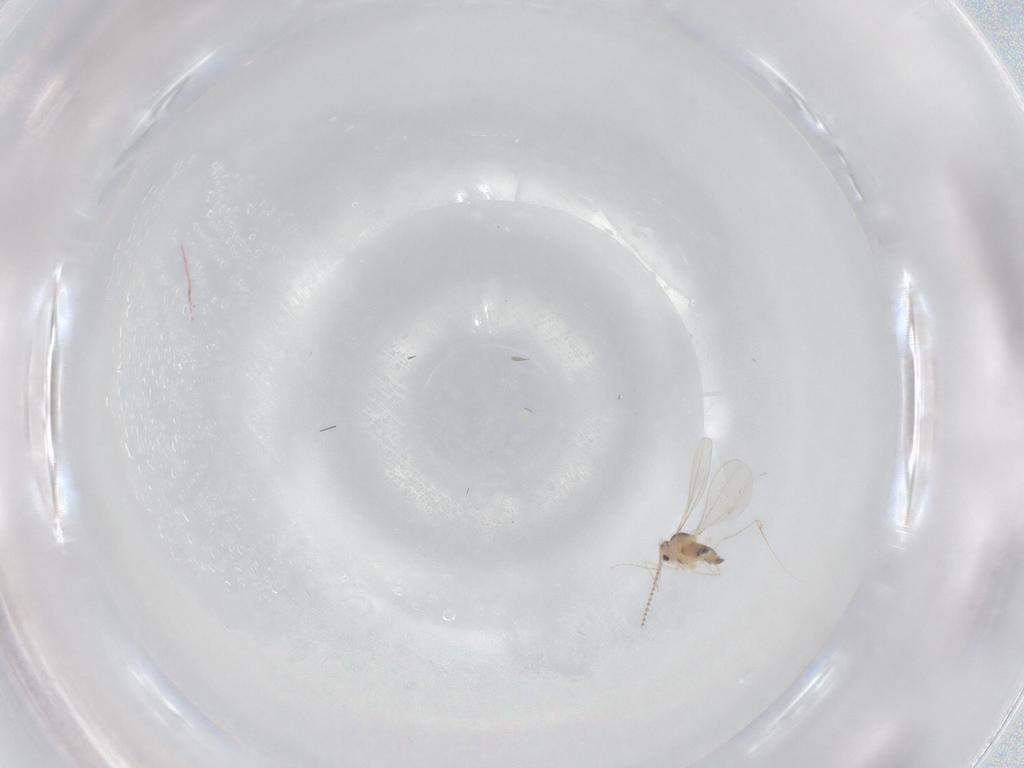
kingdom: Animalia
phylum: Arthropoda
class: Insecta
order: Diptera
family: Cecidomyiidae
